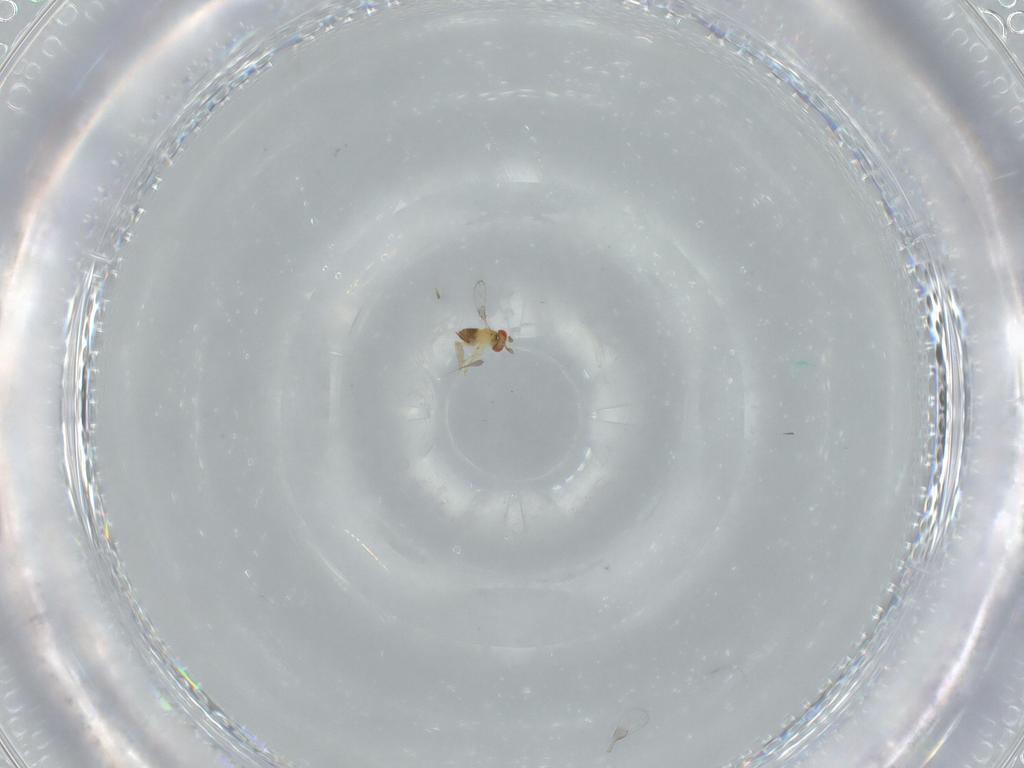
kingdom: Animalia
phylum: Arthropoda
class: Insecta
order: Hymenoptera
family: Trichogrammatidae
